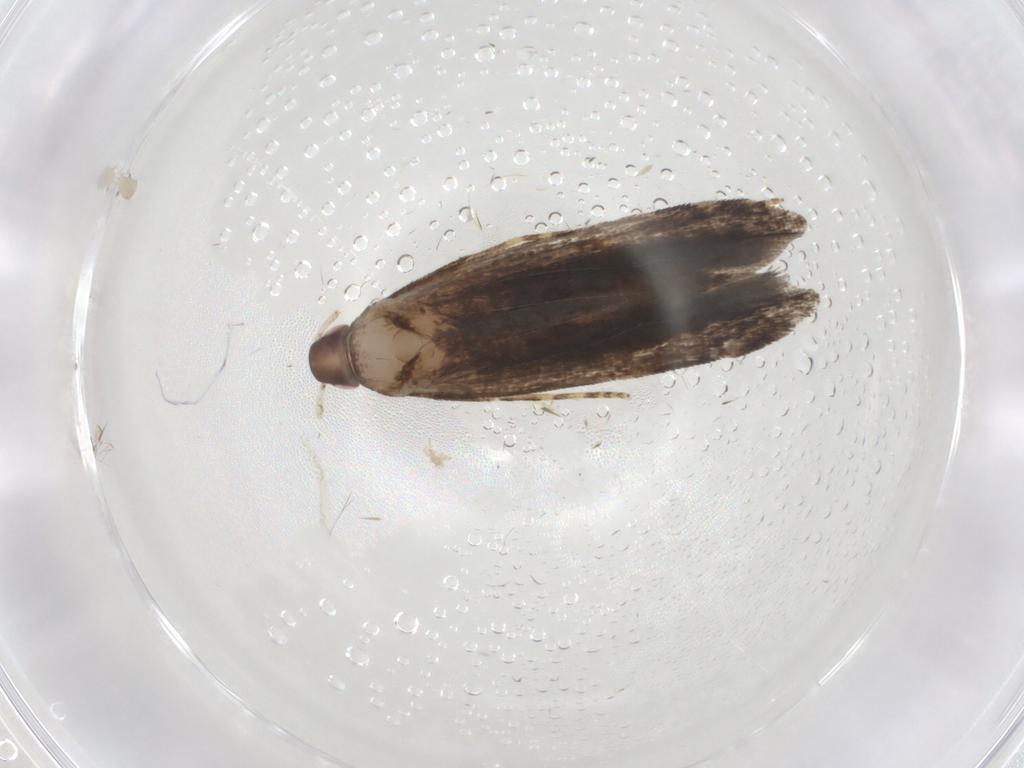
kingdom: Animalia
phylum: Arthropoda
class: Insecta
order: Lepidoptera
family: Gelechiidae
